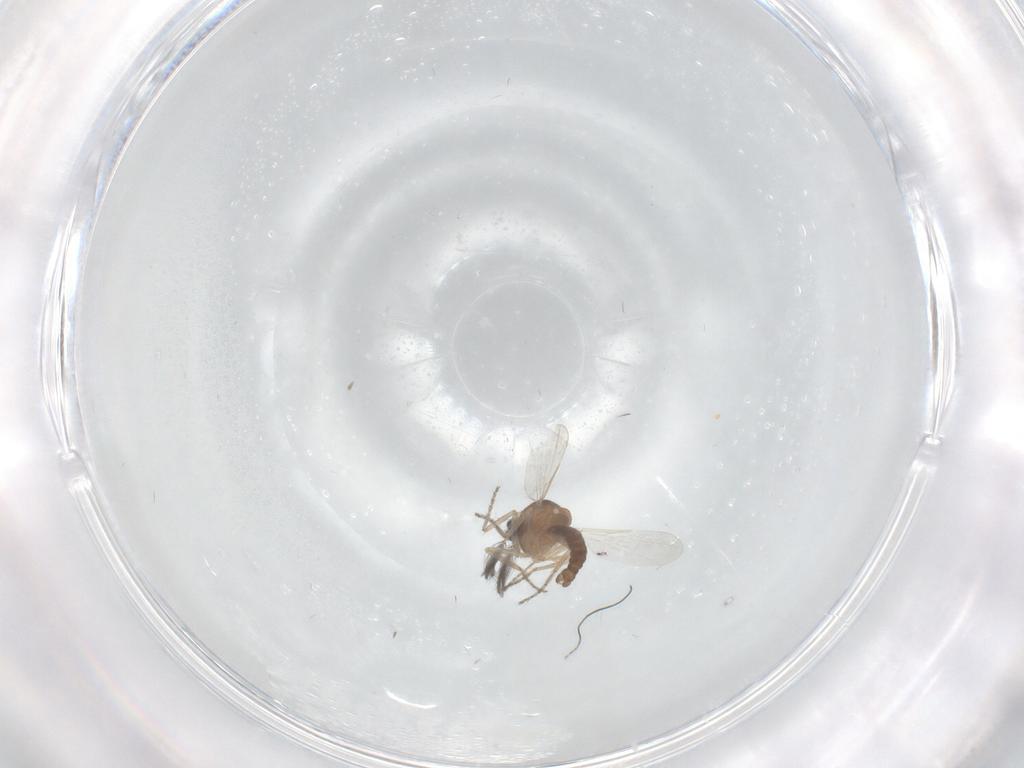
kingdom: Animalia
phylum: Arthropoda
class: Insecta
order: Diptera
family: Ceratopogonidae
